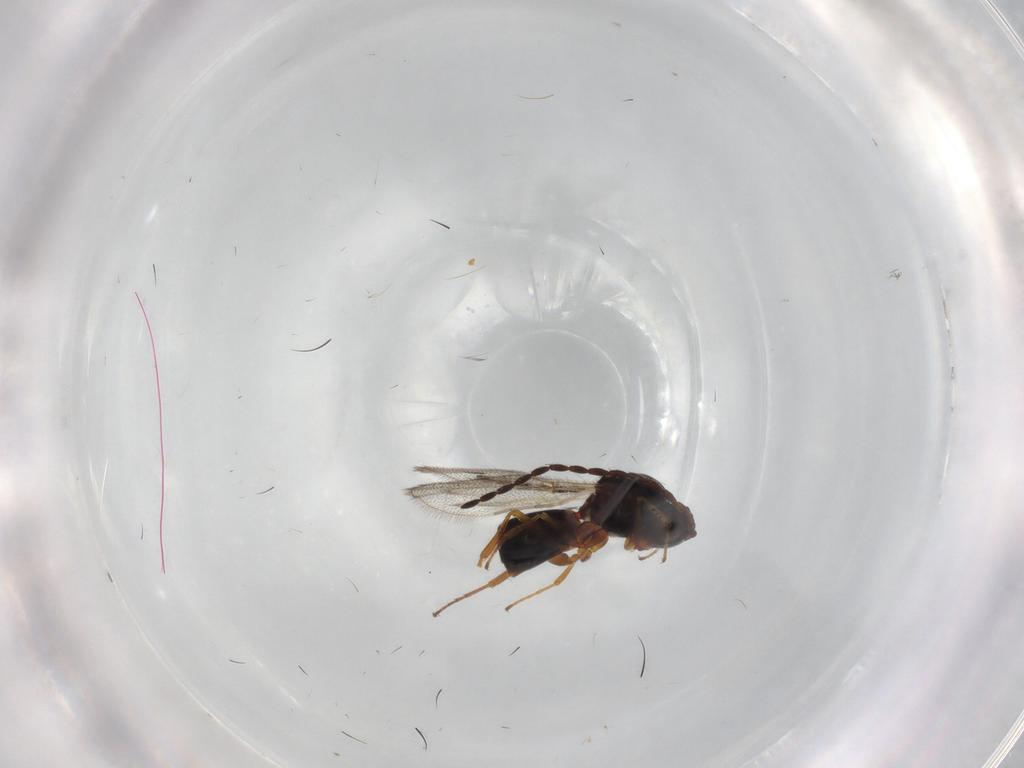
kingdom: Animalia
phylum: Arthropoda
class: Insecta
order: Hymenoptera
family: Figitidae
